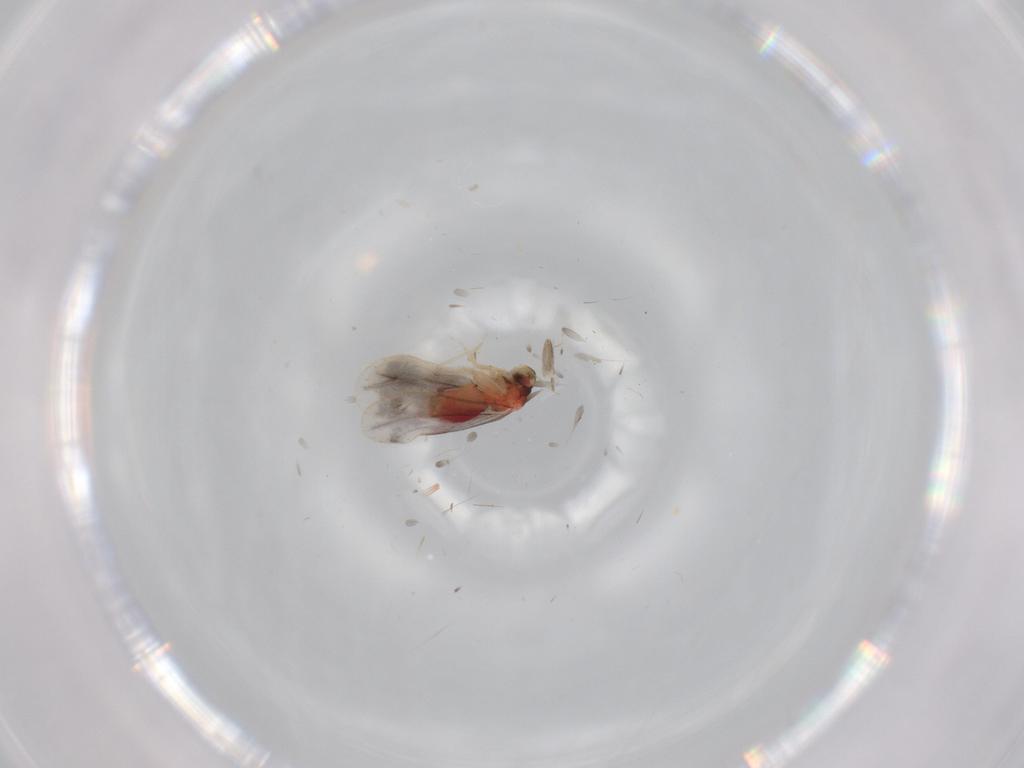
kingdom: Animalia
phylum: Arthropoda
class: Insecta
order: Hemiptera
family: Aleyrodidae
